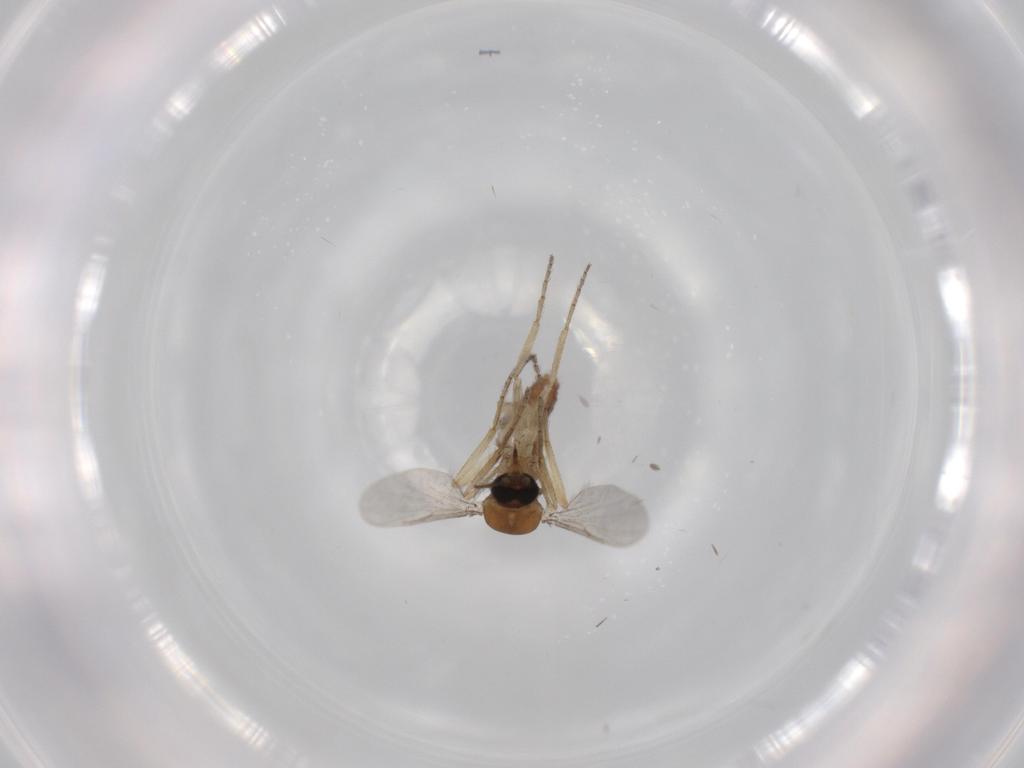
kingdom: Animalia
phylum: Arthropoda
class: Insecta
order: Diptera
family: Ceratopogonidae
